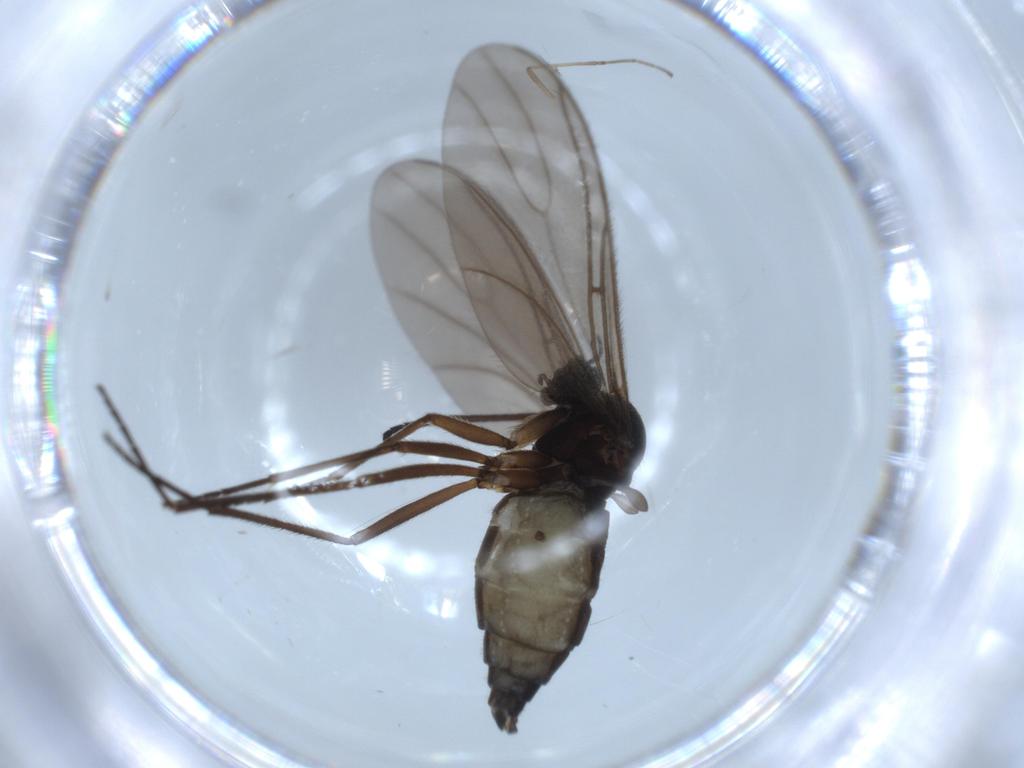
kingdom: Animalia
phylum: Arthropoda
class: Insecta
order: Diptera
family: Sciaridae
